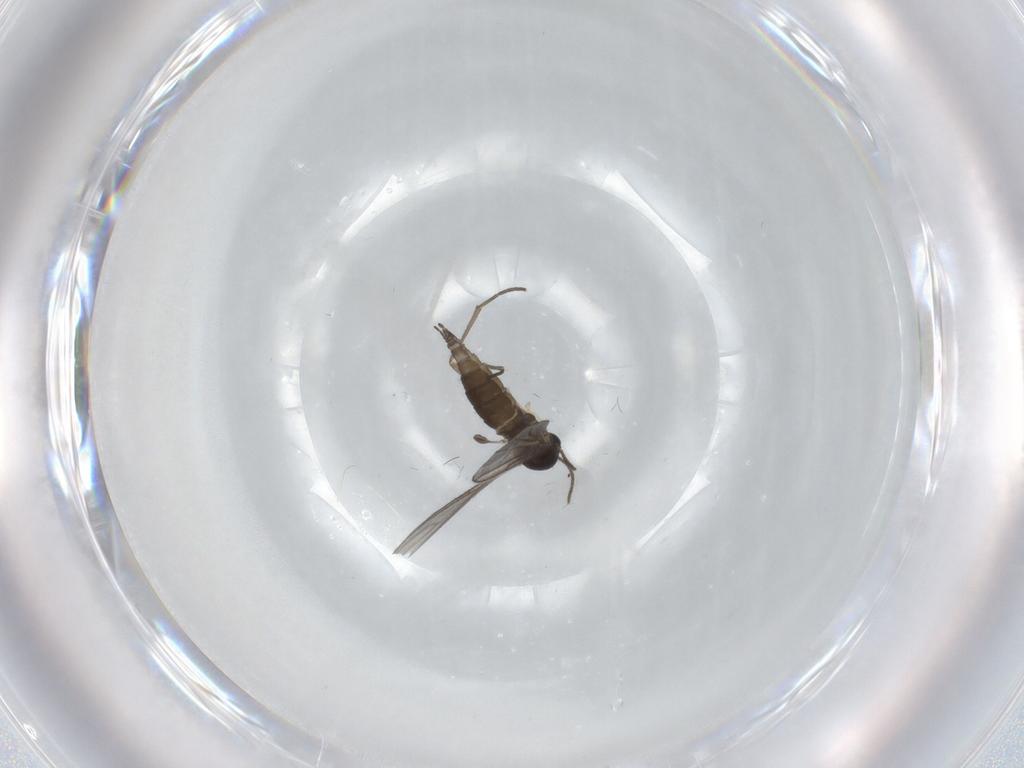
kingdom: Animalia
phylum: Arthropoda
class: Insecta
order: Diptera
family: Sciaridae
